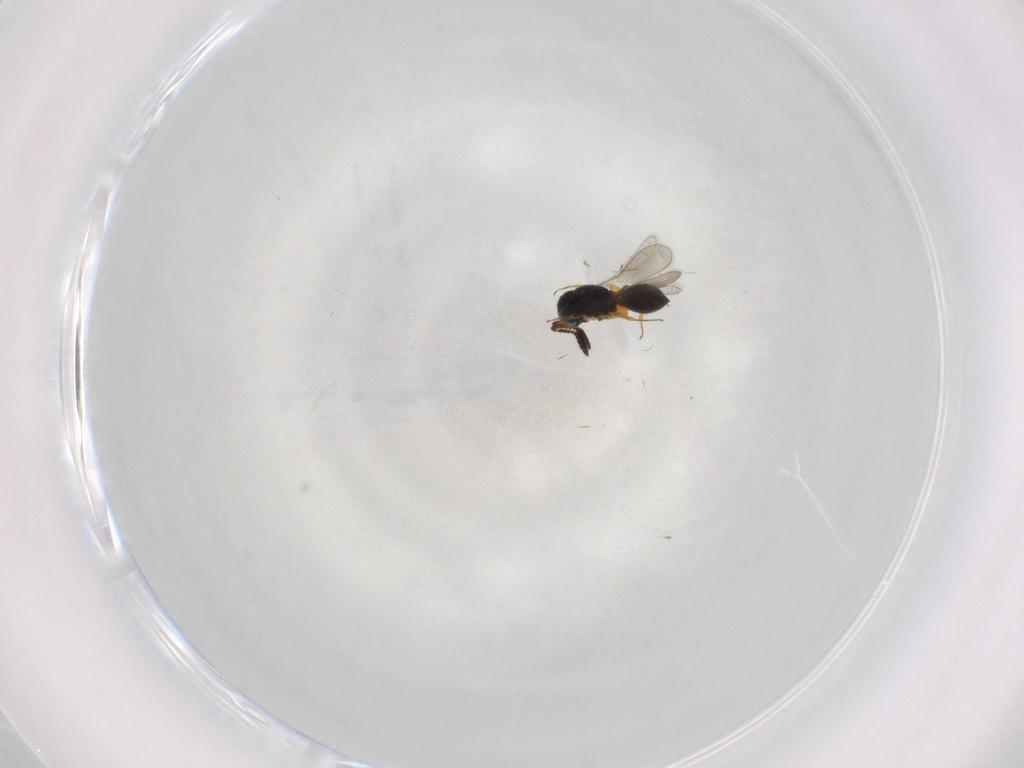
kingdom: Animalia
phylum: Arthropoda
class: Insecta
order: Hymenoptera
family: Scelionidae
